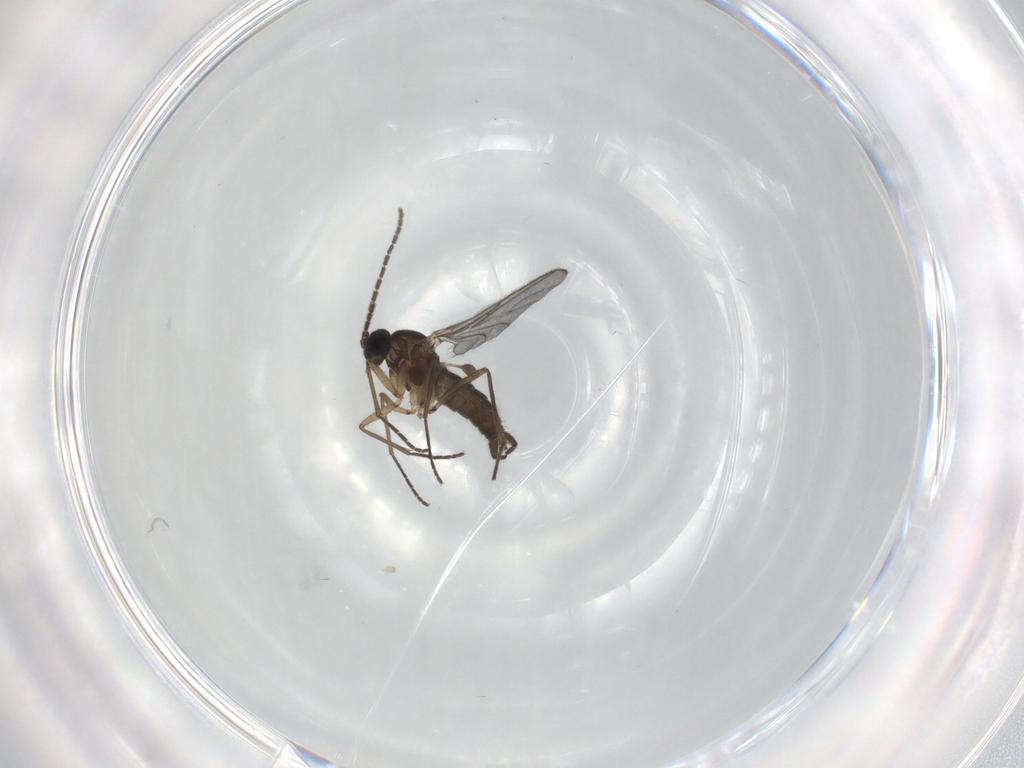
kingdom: Animalia
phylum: Arthropoda
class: Insecta
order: Diptera
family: Sciaridae
